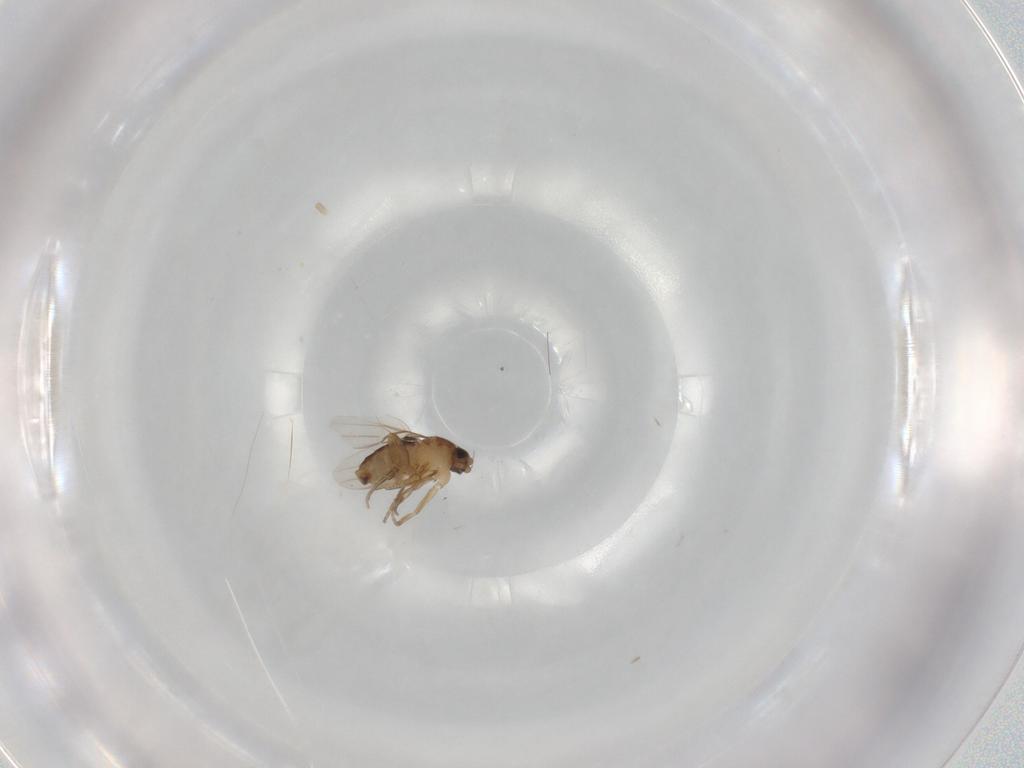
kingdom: Animalia
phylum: Arthropoda
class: Insecta
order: Diptera
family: Phoridae
